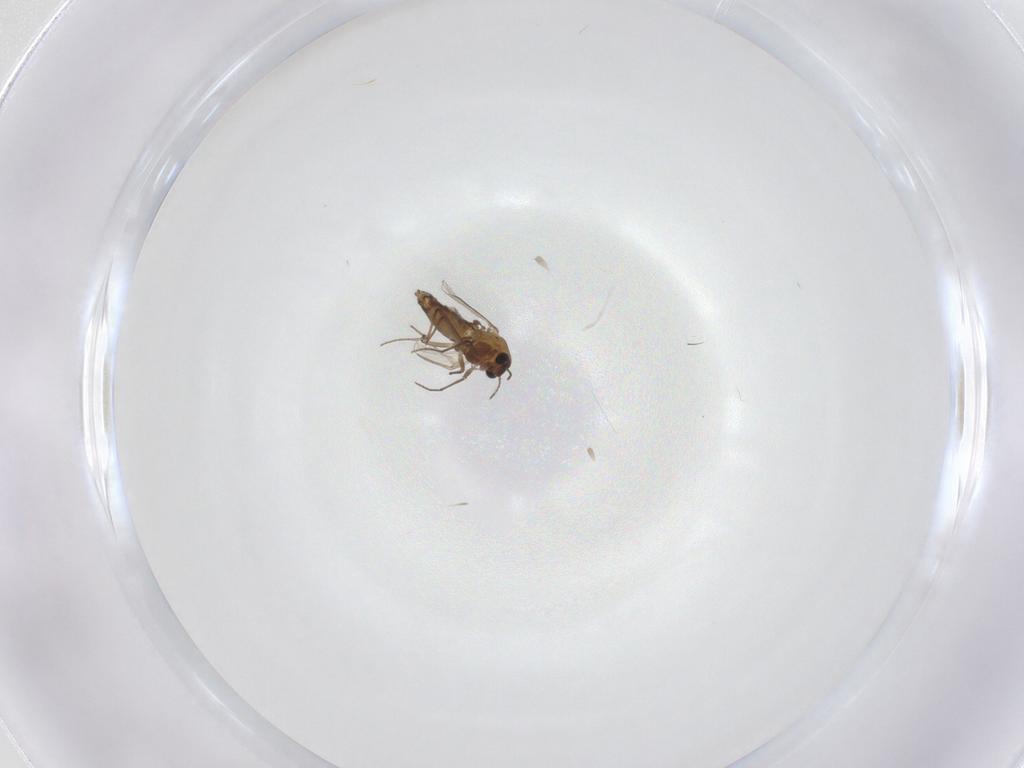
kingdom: Animalia
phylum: Arthropoda
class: Insecta
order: Diptera
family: Chironomidae
